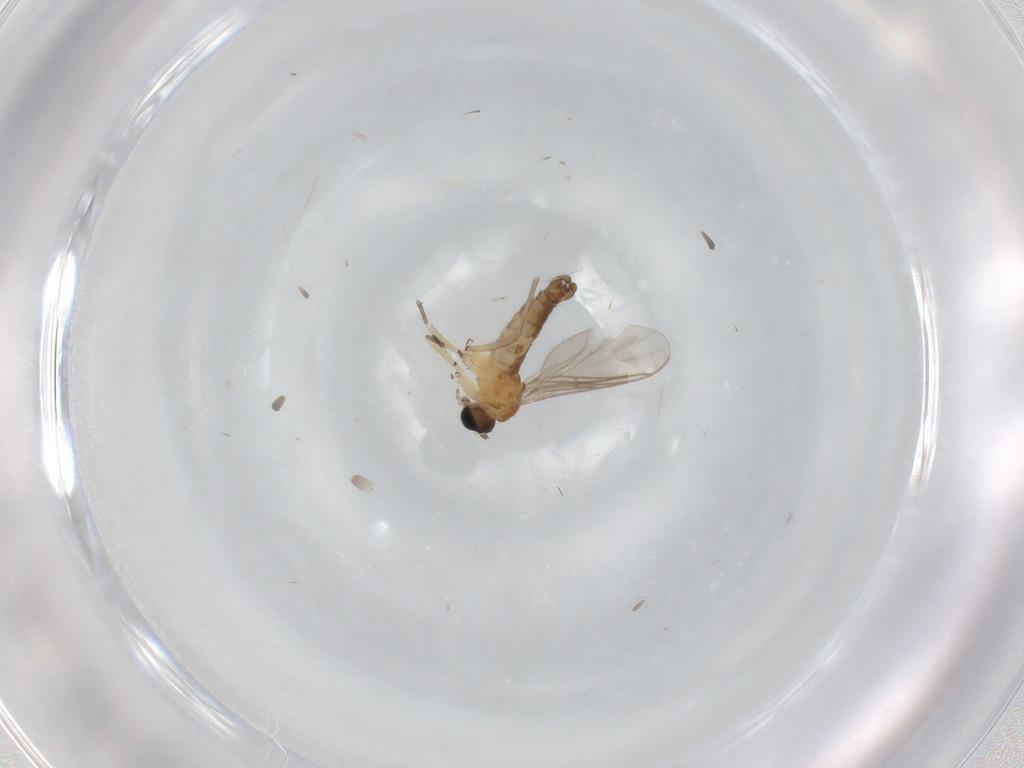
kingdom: Animalia
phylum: Arthropoda
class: Insecta
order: Diptera
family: Sciaridae
